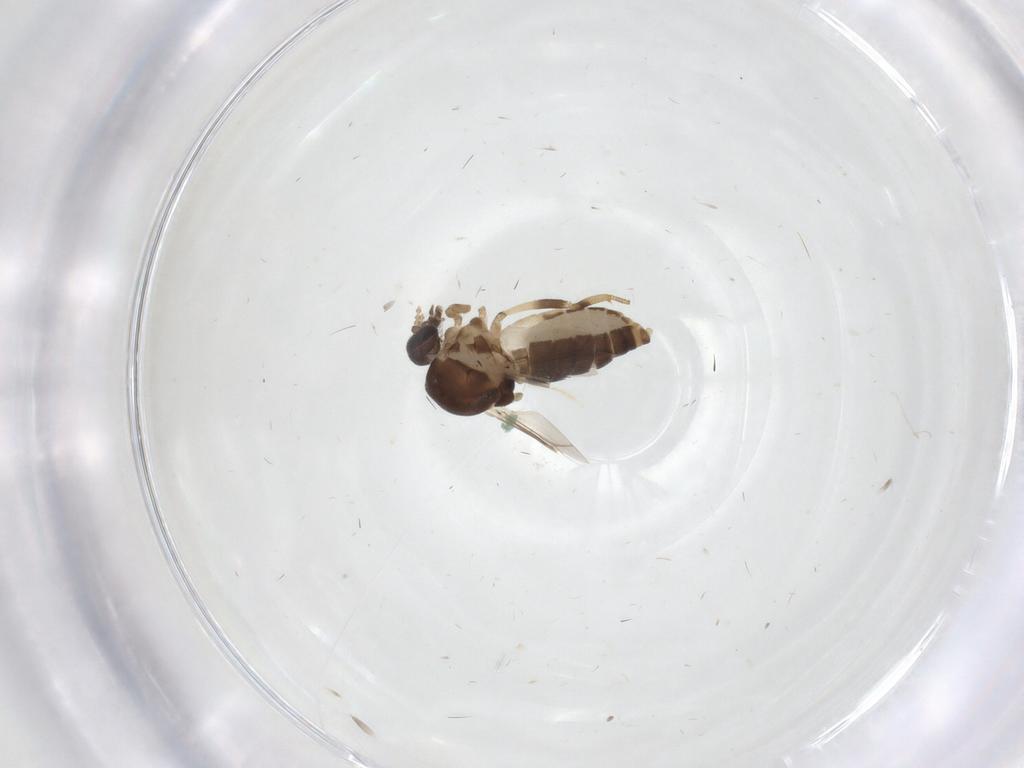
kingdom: Animalia
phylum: Arthropoda
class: Insecta
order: Diptera
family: Ceratopogonidae
